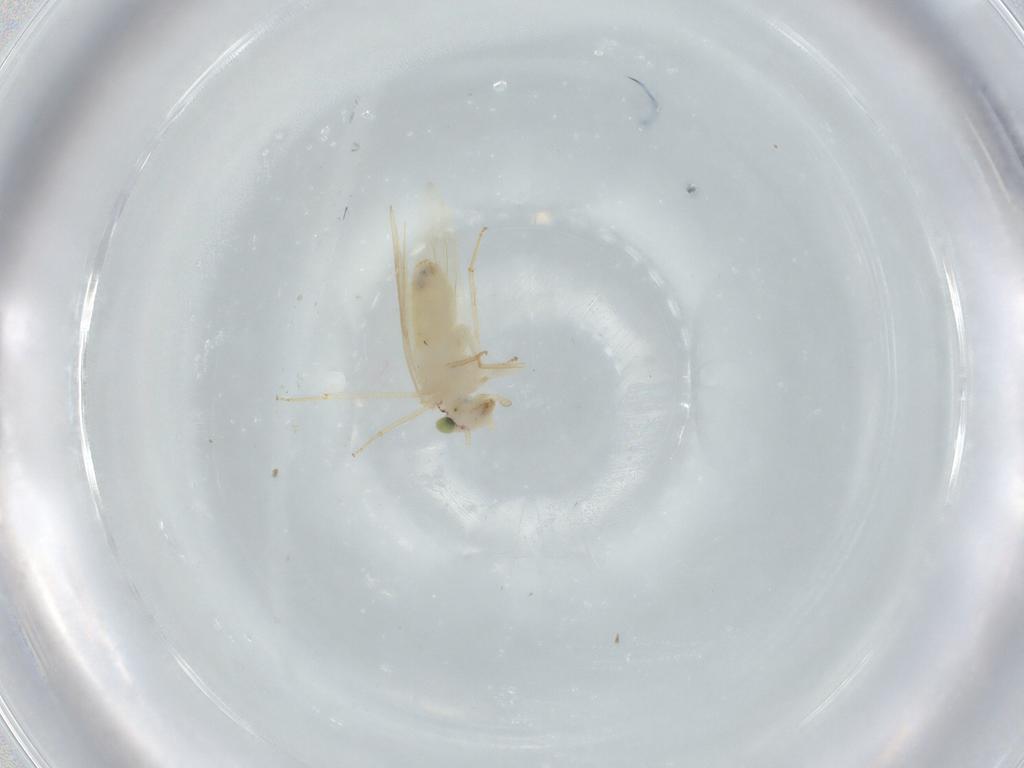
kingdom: Animalia
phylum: Arthropoda
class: Insecta
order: Psocodea
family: Lepidopsocidae
